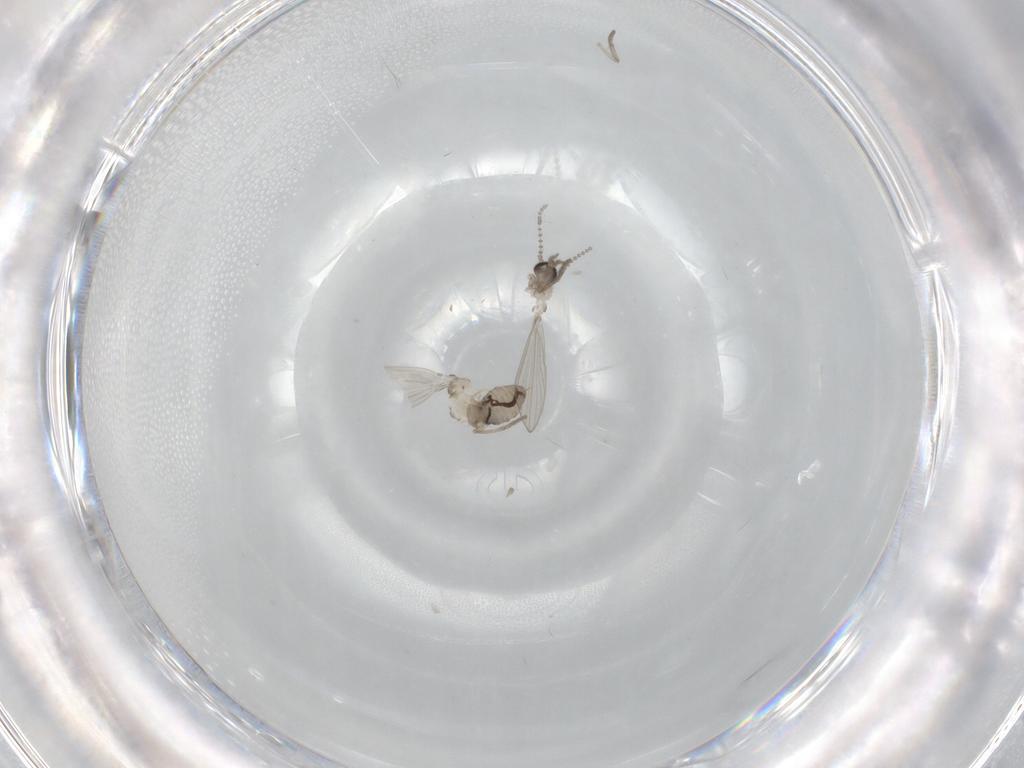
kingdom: Animalia
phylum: Arthropoda
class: Insecta
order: Diptera
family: Psychodidae
